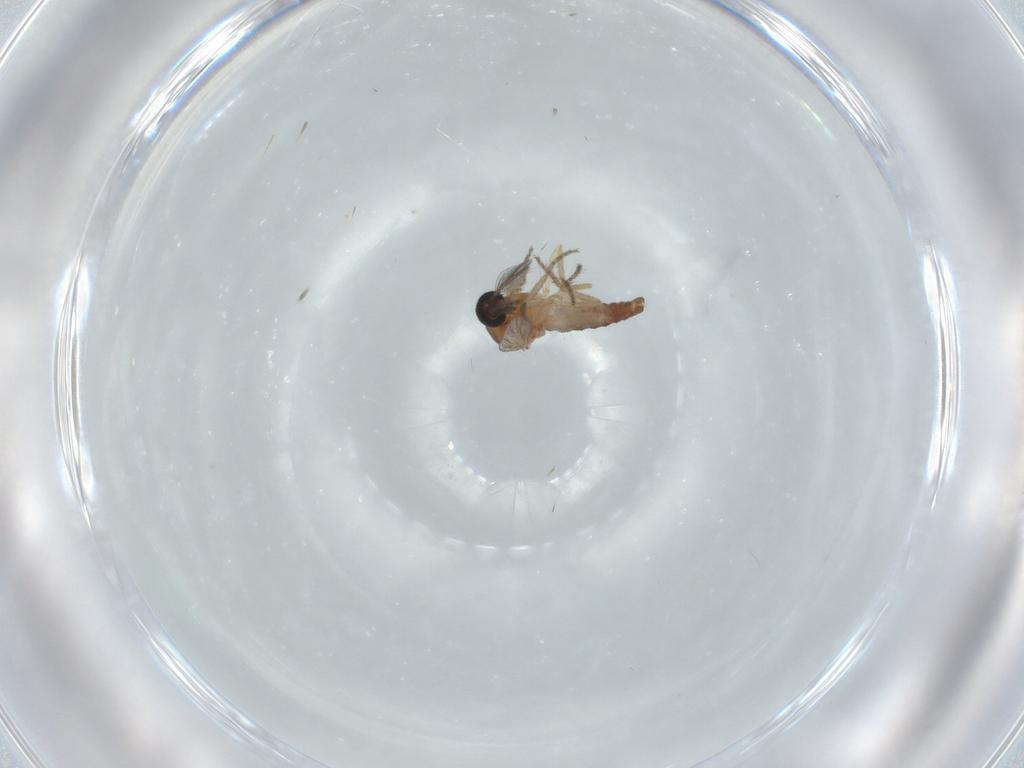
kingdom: Animalia
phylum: Arthropoda
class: Insecta
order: Diptera
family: Ceratopogonidae
